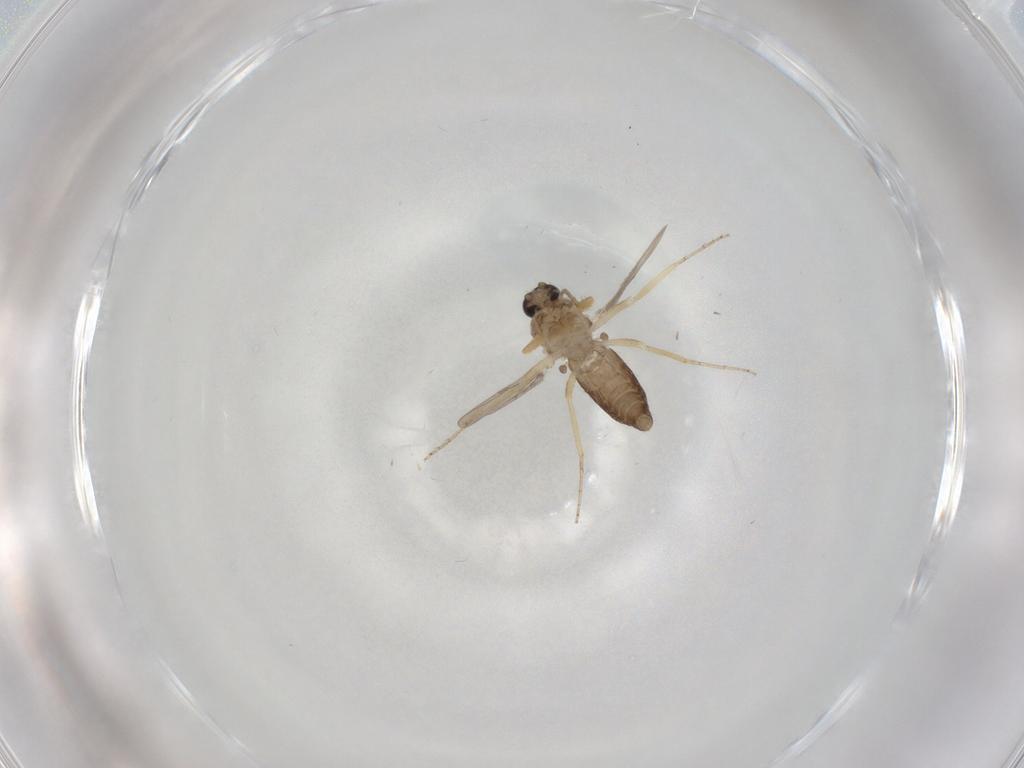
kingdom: Animalia
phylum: Arthropoda
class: Insecta
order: Diptera
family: Ceratopogonidae
